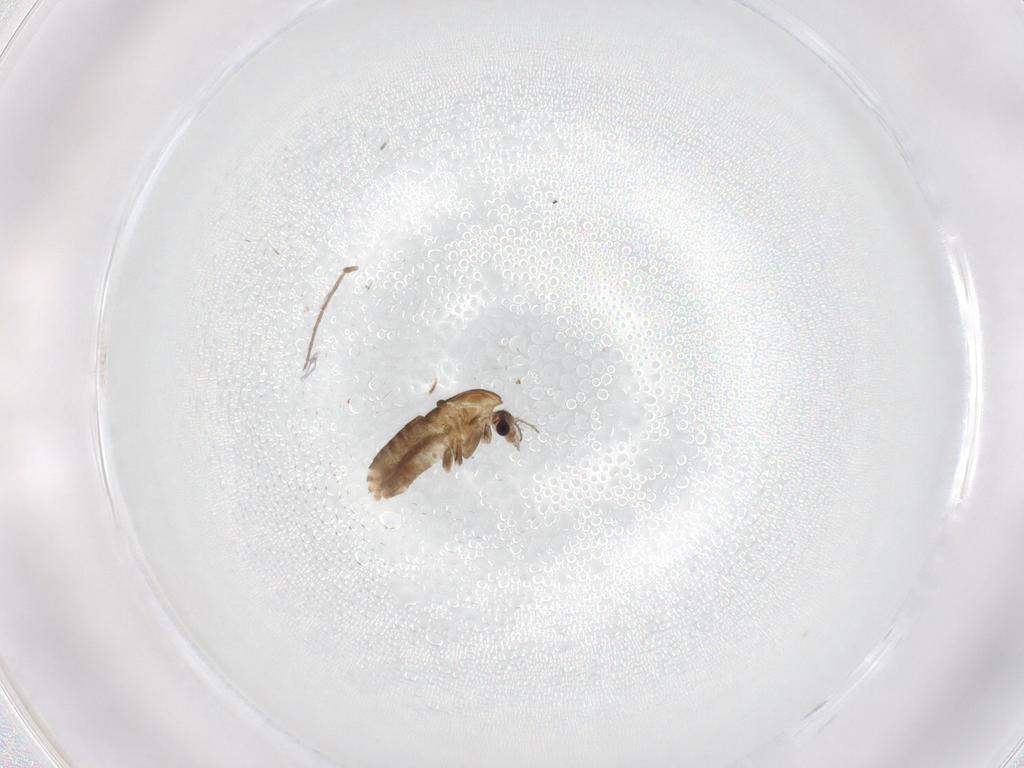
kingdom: Animalia
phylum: Arthropoda
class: Insecta
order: Diptera
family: Chironomidae
